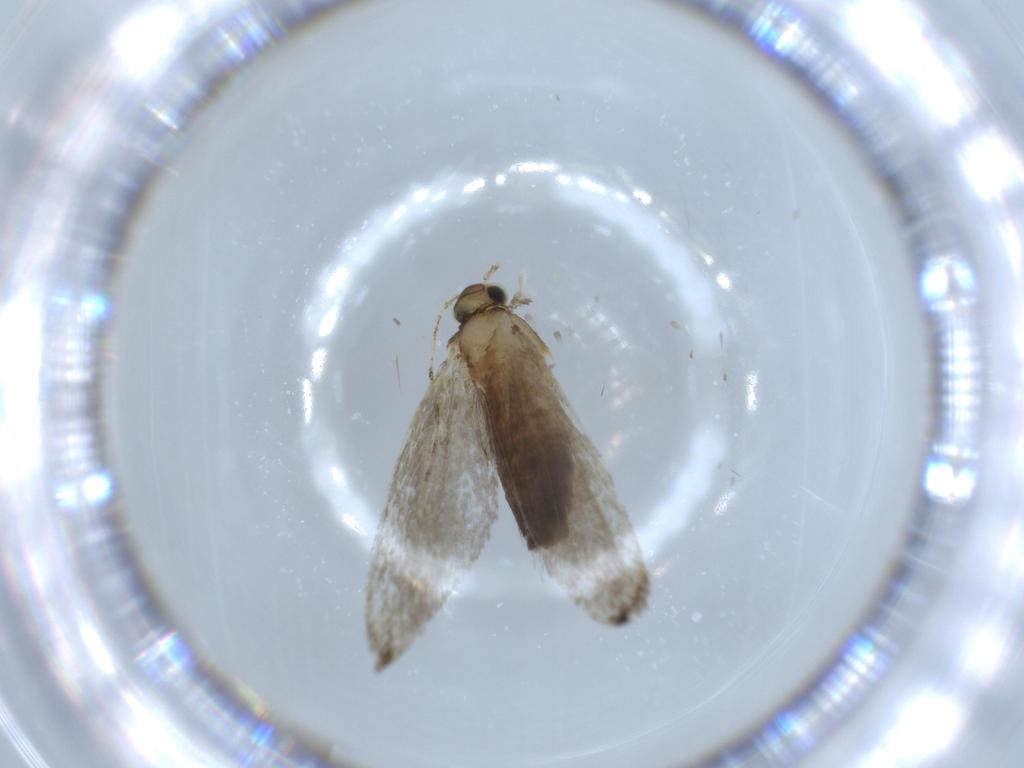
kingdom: Animalia
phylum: Arthropoda
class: Insecta
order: Lepidoptera
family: Tineidae
